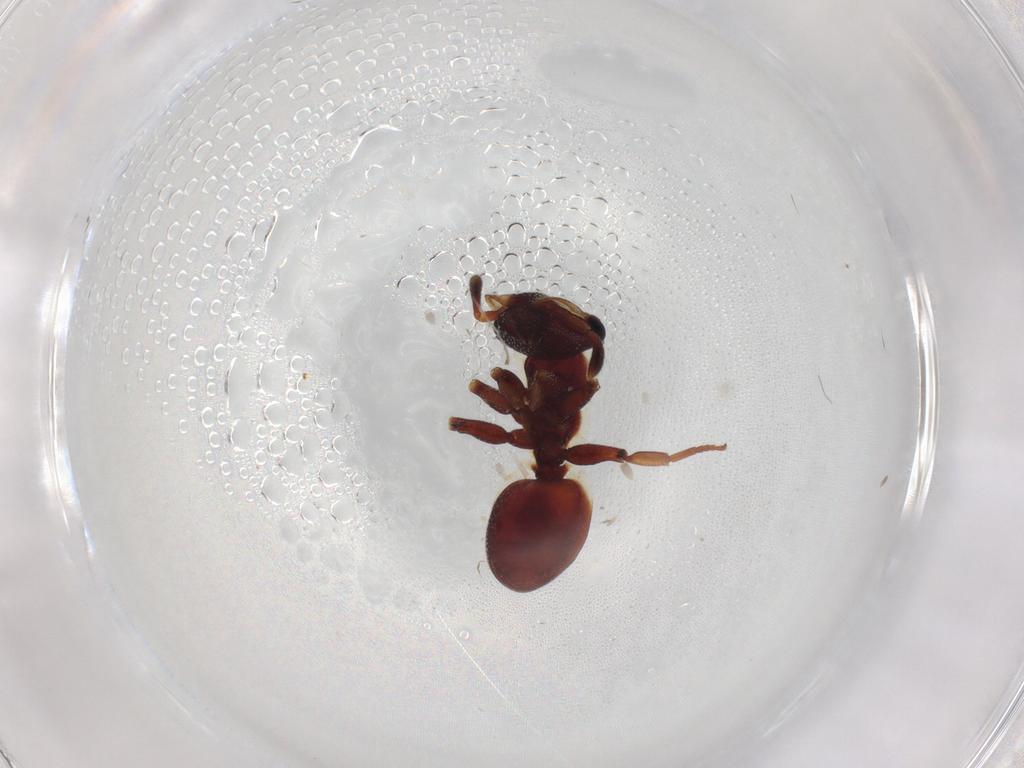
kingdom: Animalia
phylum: Arthropoda
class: Insecta
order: Hymenoptera
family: Formicidae
